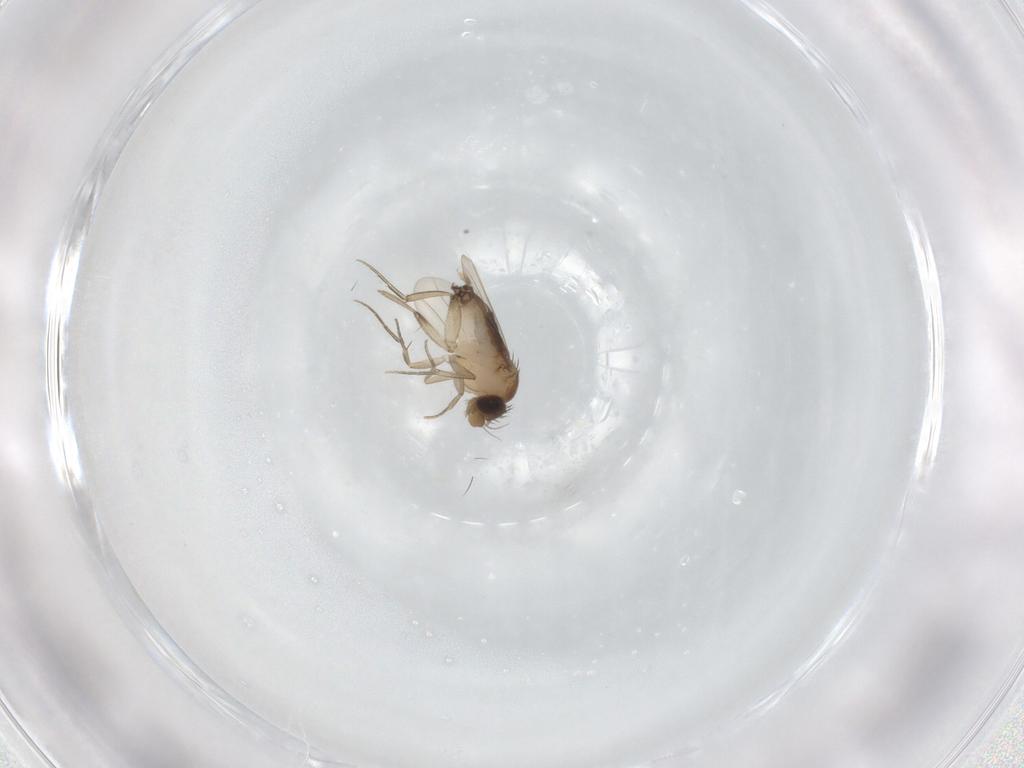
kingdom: Animalia
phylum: Arthropoda
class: Insecta
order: Diptera
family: Phoridae
